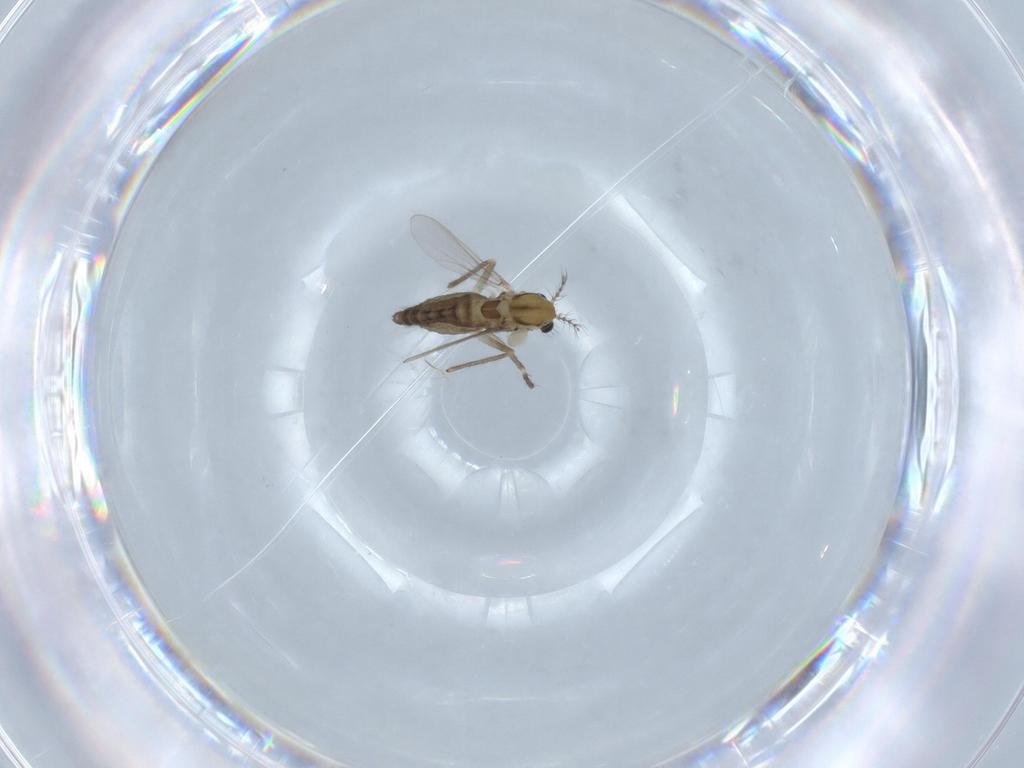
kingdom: Animalia
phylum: Arthropoda
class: Insecta
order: Diptera
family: Chironomidae
